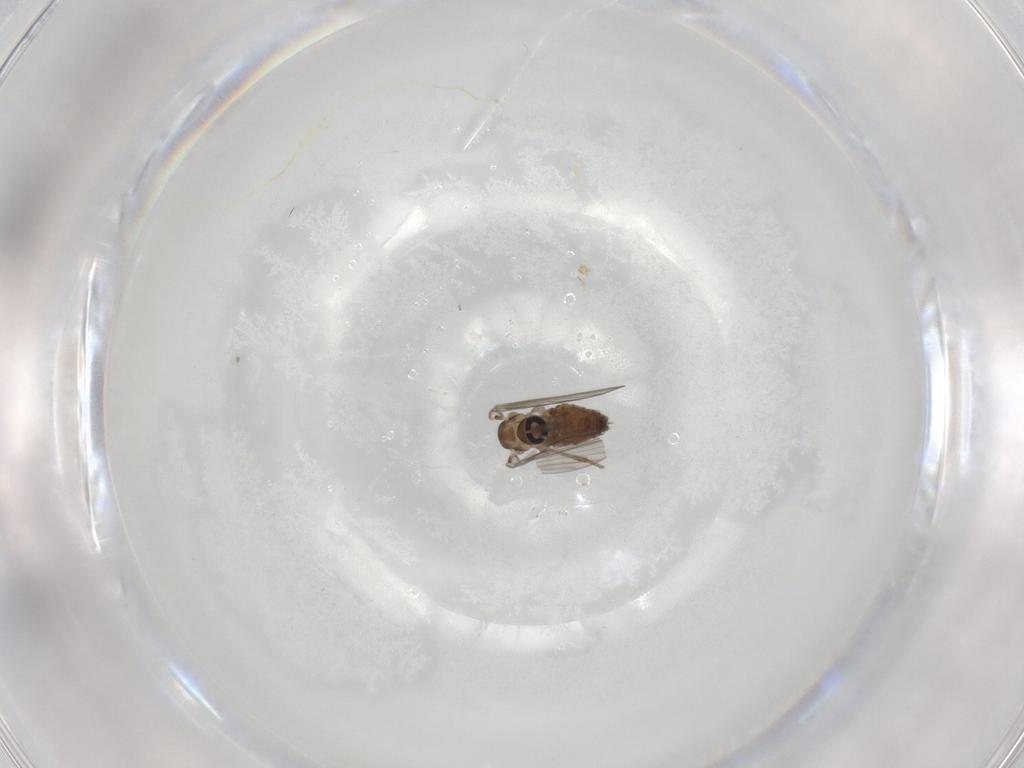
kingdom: Animalia
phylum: Arthropoda
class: Insecta
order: Diptera
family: Psychodidae
